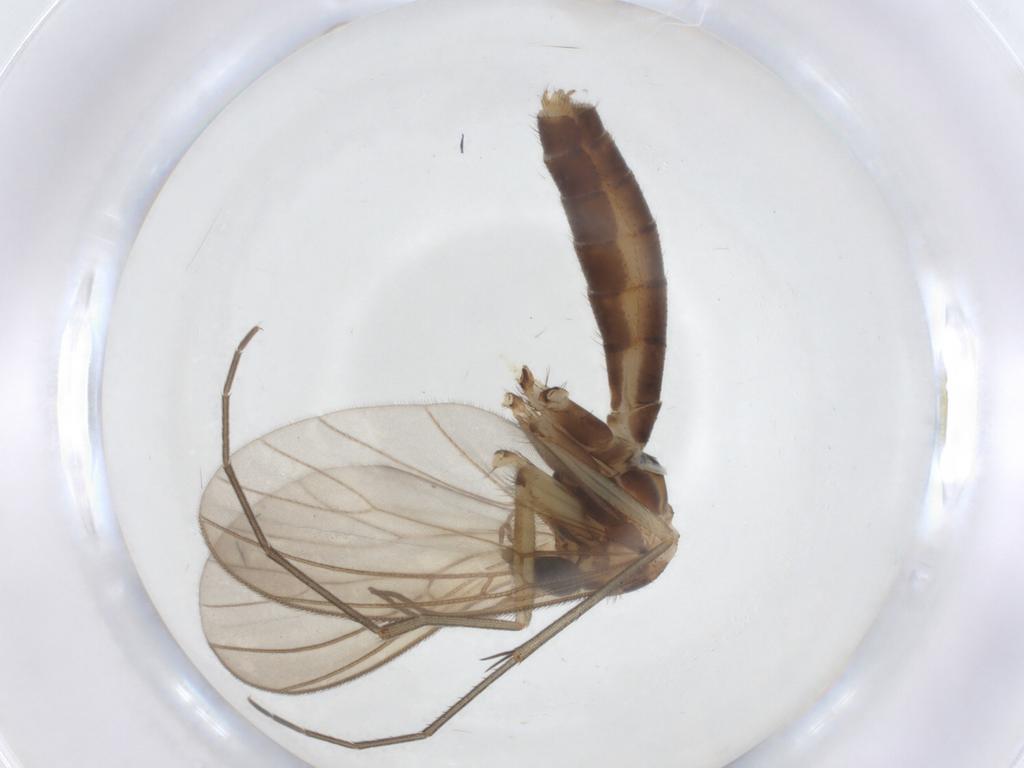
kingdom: Animalia
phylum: Arthropoda
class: Insecta
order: Diptera
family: Mycetophilidae
